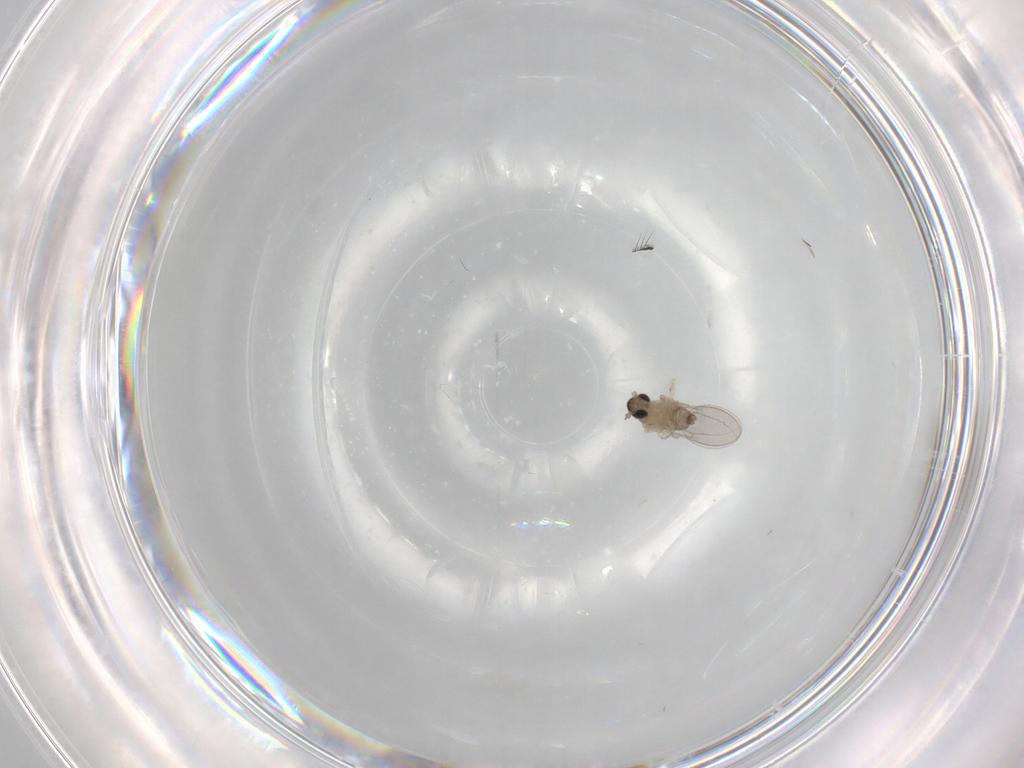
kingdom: Animalia
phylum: Arthropoda
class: Insecta
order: Diptera
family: Cecidomyiidae
